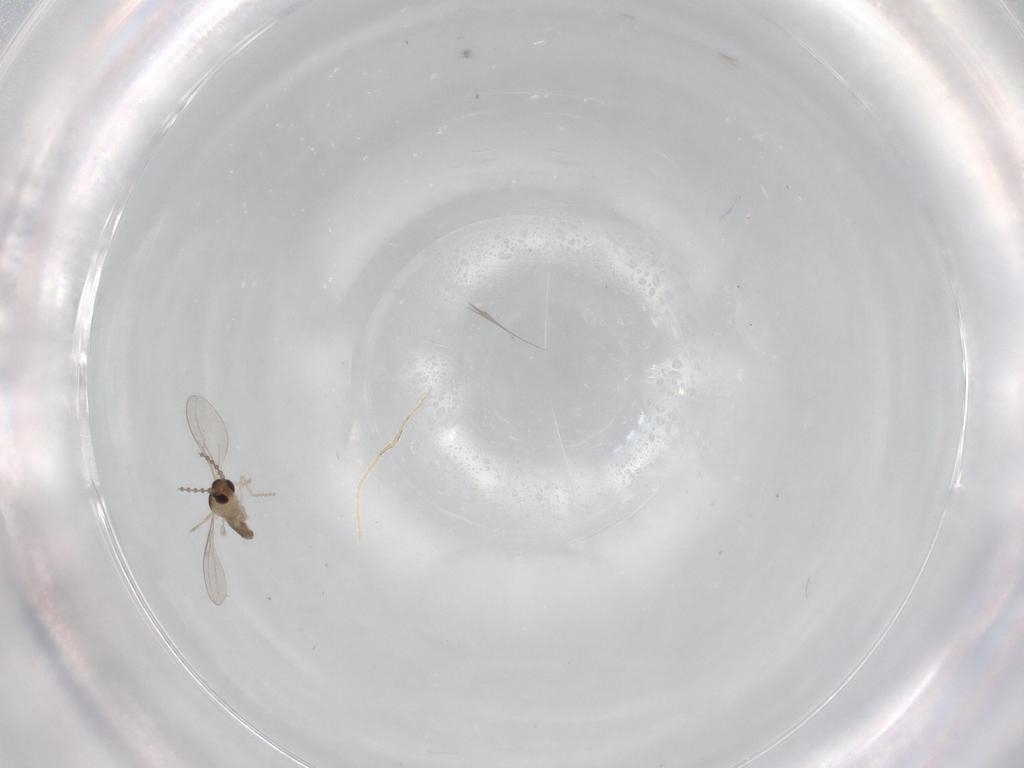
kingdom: Animalia
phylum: Arthropoda
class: Insecta
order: Diptera
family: Cecidomyiidae
